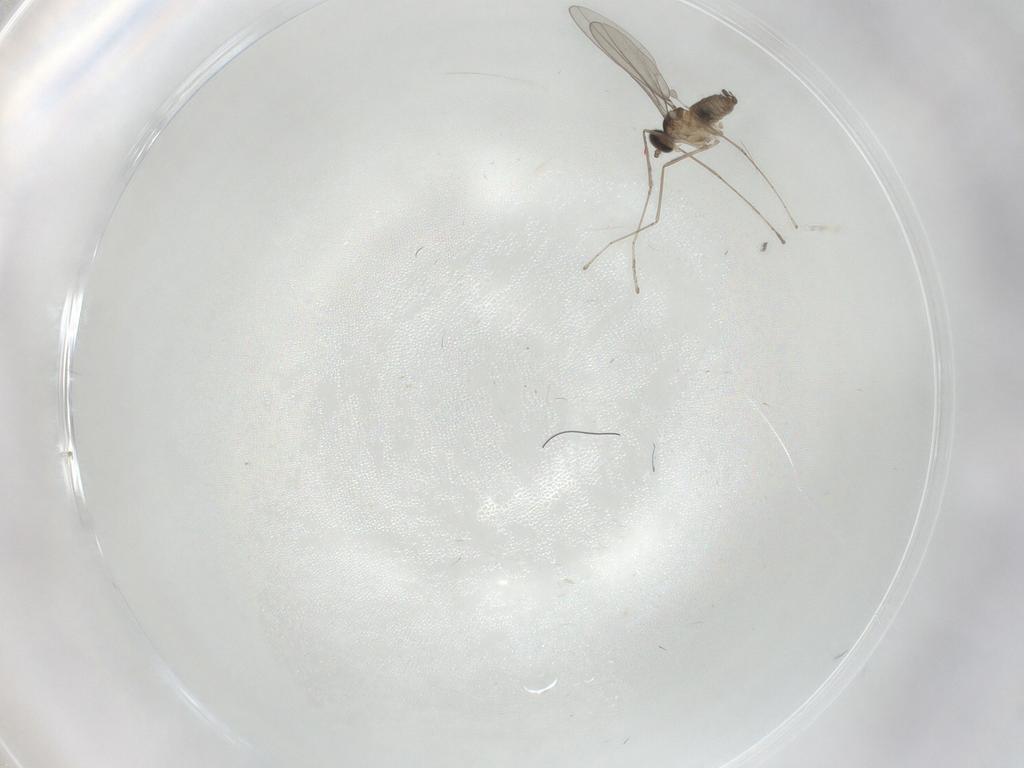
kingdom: Animalia
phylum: Arthropoda
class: Insecta
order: Diptera
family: Cecidomyiidae
